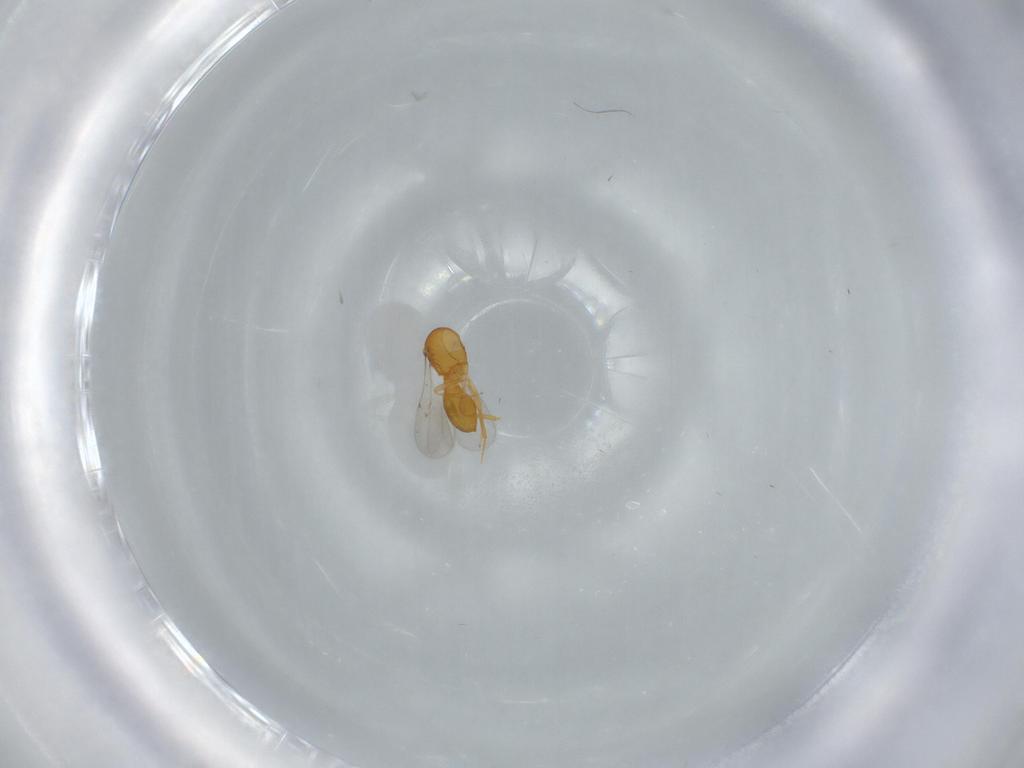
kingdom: Animalia
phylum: Arthropoda
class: Insecta
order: Hymenoptera
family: Scelionidae
